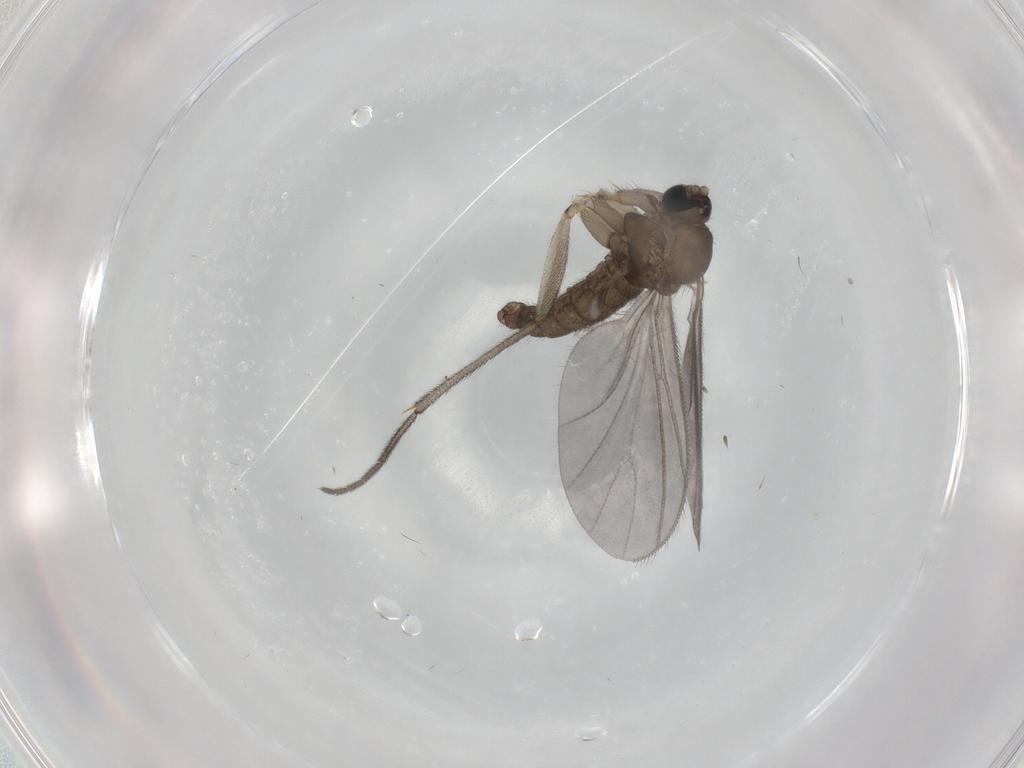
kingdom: Animalia
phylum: Arthropoda
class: Insecta
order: Diptera
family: Sciaridae
